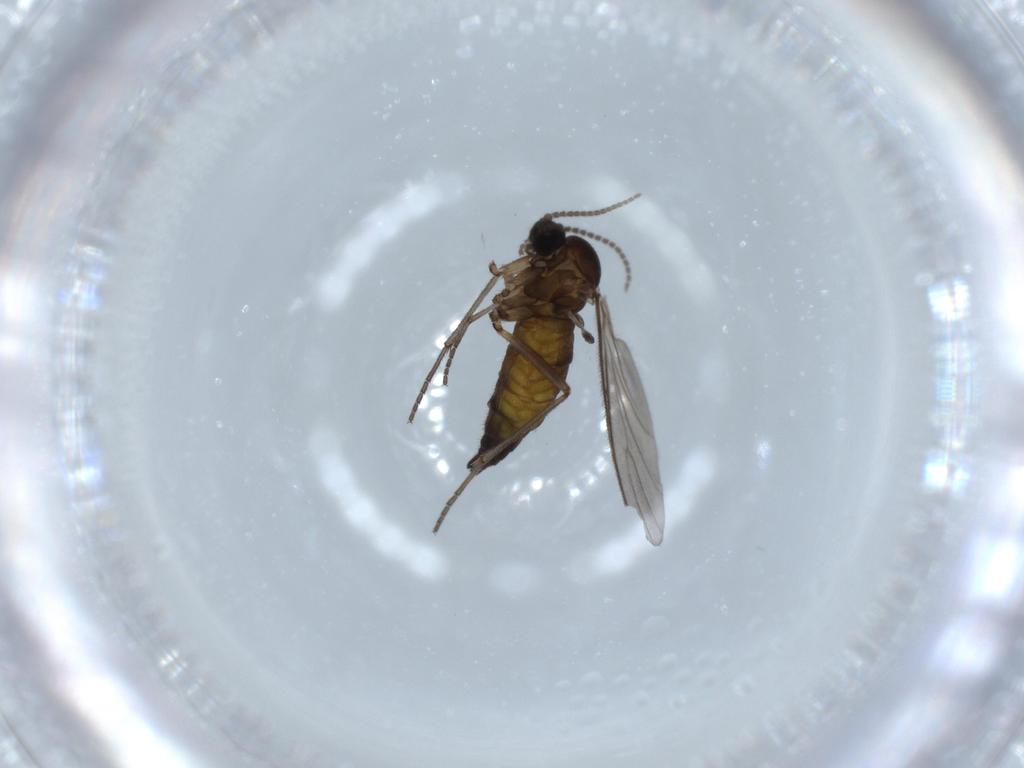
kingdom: Animalia
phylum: Arthropoda
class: Insecta
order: Diptera
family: Sciaridae
